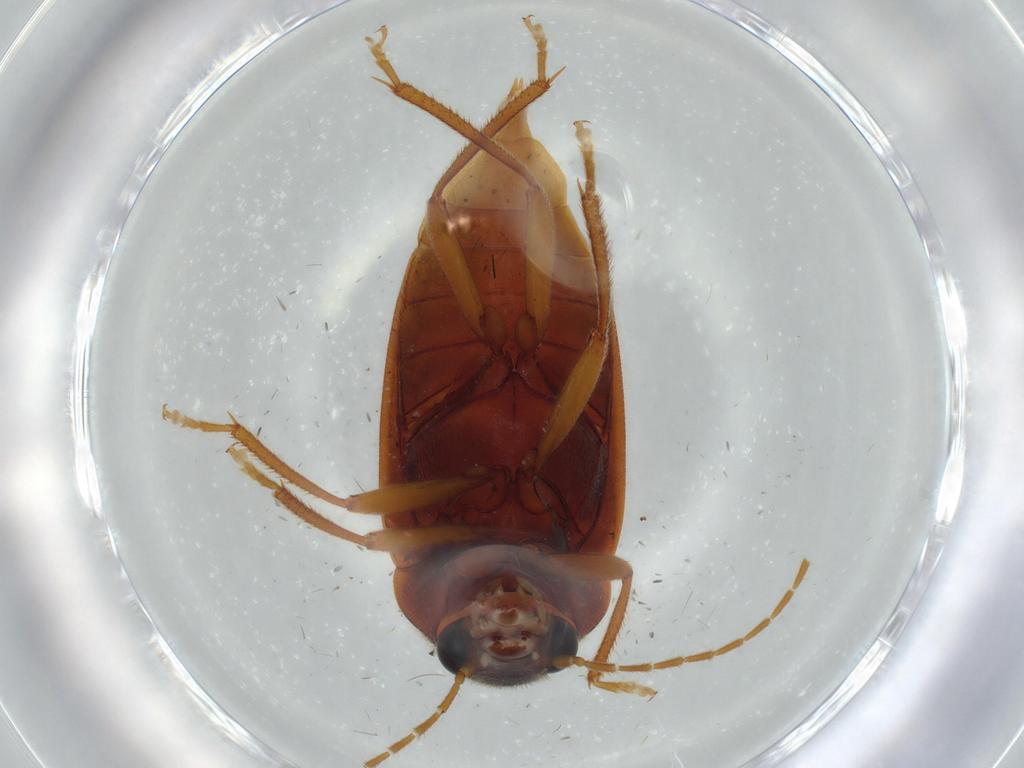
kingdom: Animalia
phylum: Arthropoda
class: Insecta
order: Coleoptera
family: Ptilodactylidae
